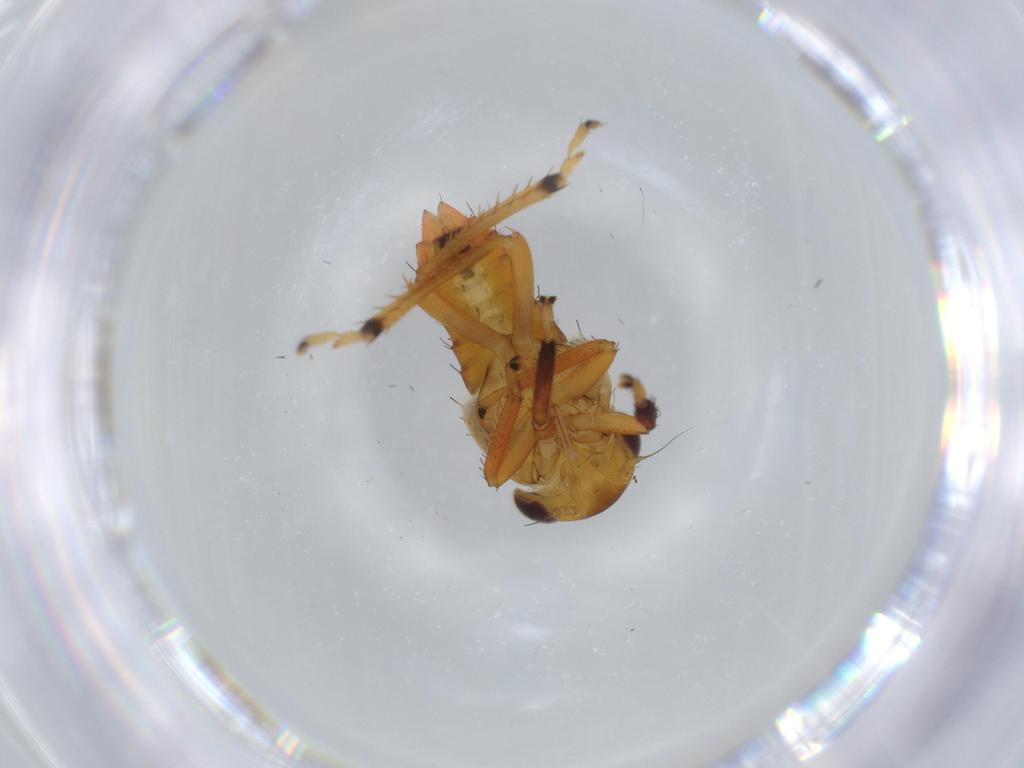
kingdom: Animalia
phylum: Arthropoda
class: Insecta
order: Hemiptera
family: Cicadellidae
